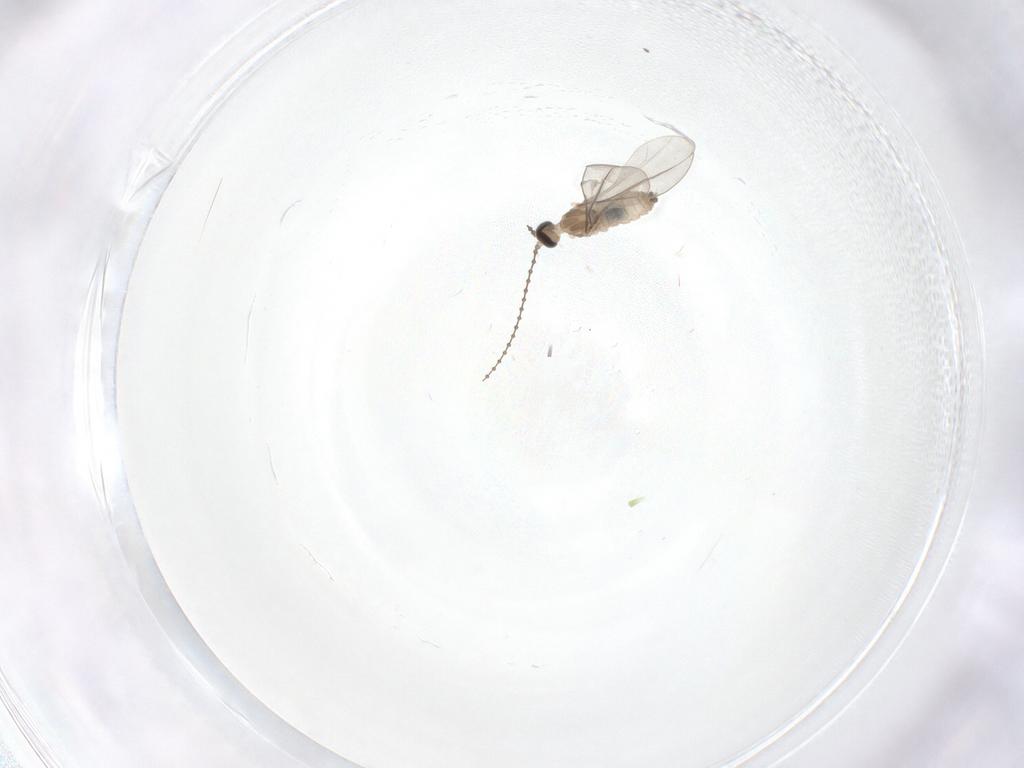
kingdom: Animalia
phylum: Arthropoda
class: Insecta
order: Diptera
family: Cecidomyiidae
